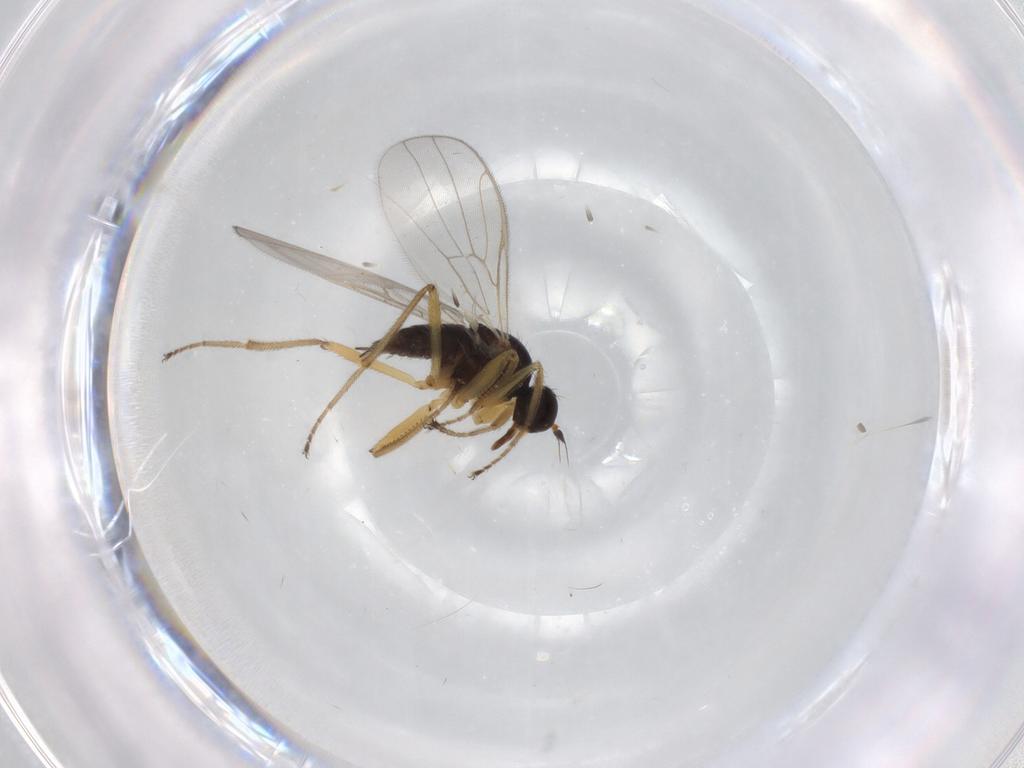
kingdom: Animalia
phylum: Arthropoda
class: Insecta
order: Diptera
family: Hybotidae
